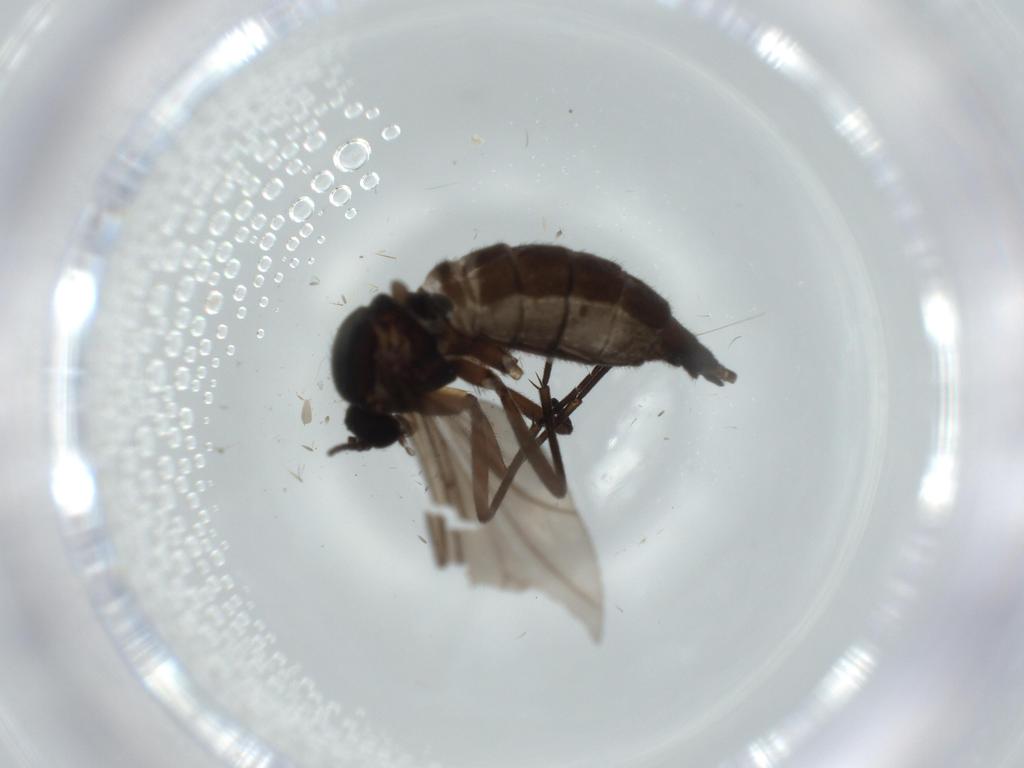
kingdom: Animalia
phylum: Arthropoda
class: Insecta
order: Diptera
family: Sciaridae
